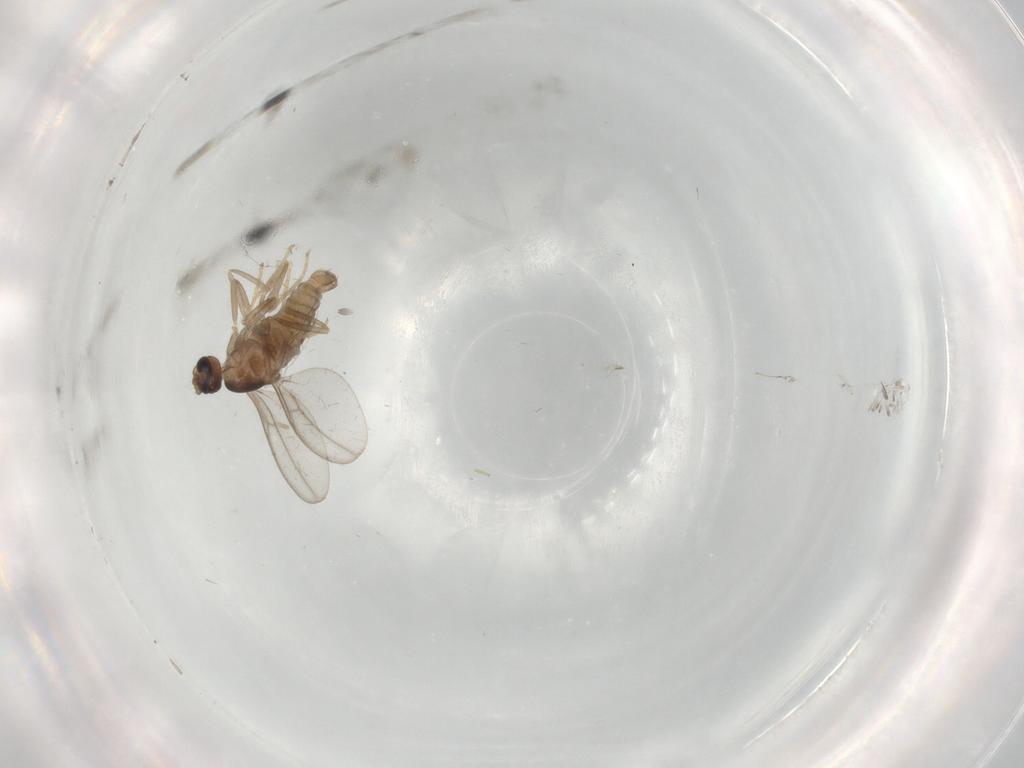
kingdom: Animalia
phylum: Arthropoda
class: Insecta
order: Diptera
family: Cecidomyiidae
